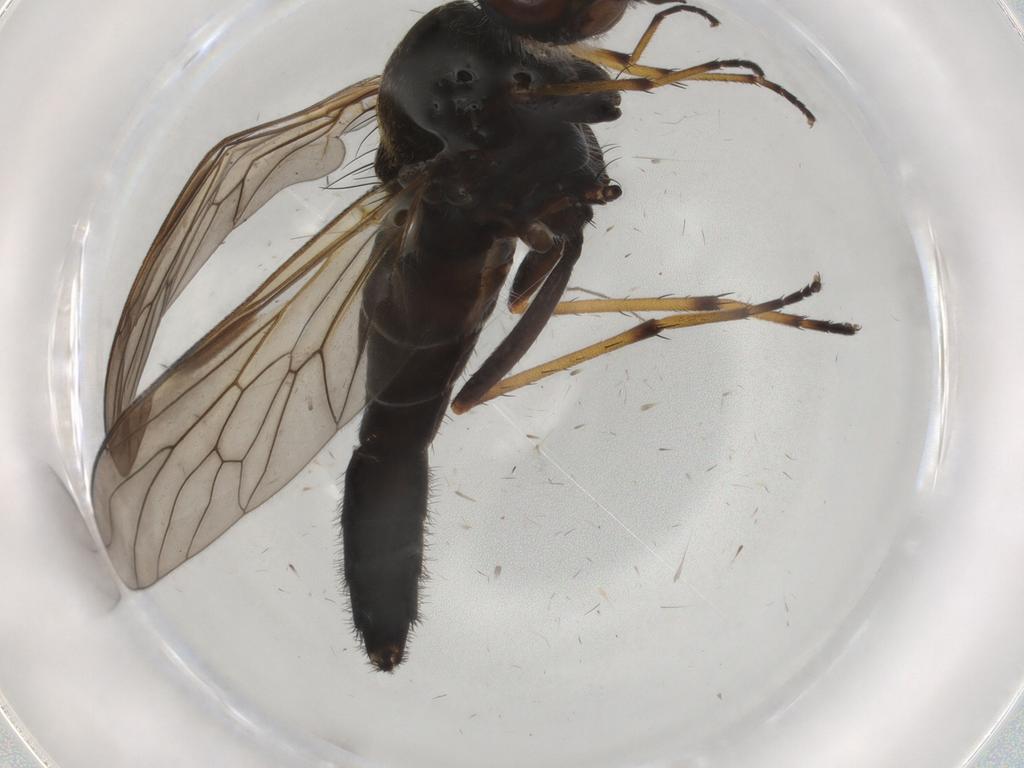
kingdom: Animalia
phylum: Arthropoda
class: Insecta
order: Diptera
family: Therevidae
